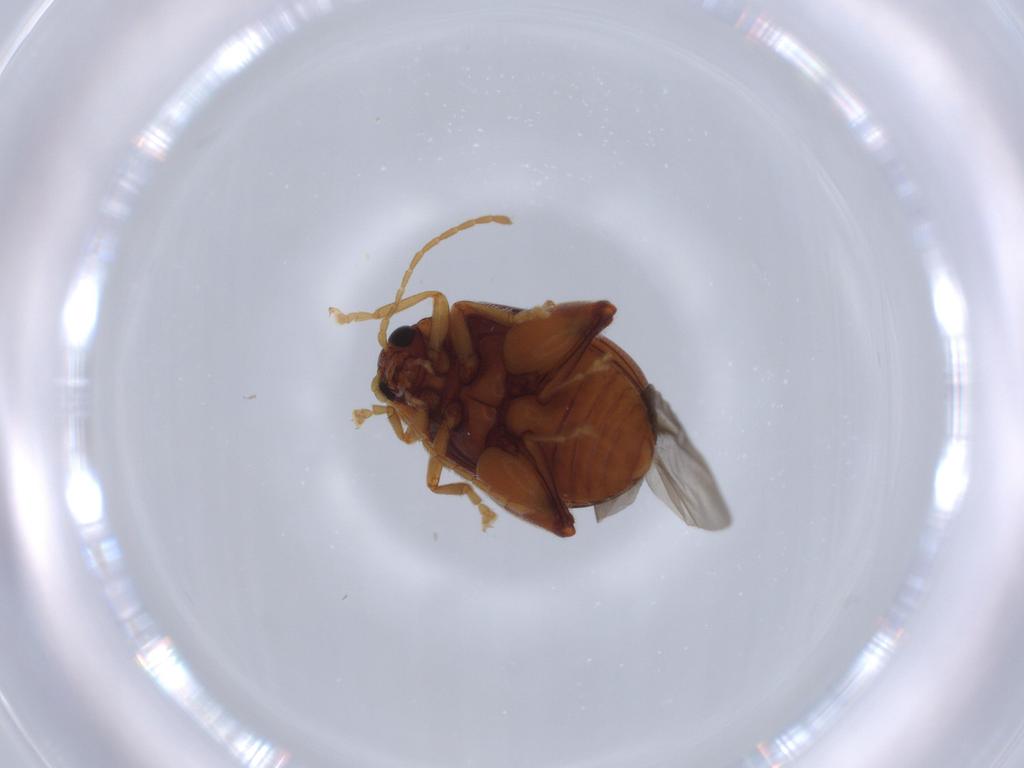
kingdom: Animalia
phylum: Arthropoda
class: Insecta
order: Coleoptera
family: Chrysomelidae
